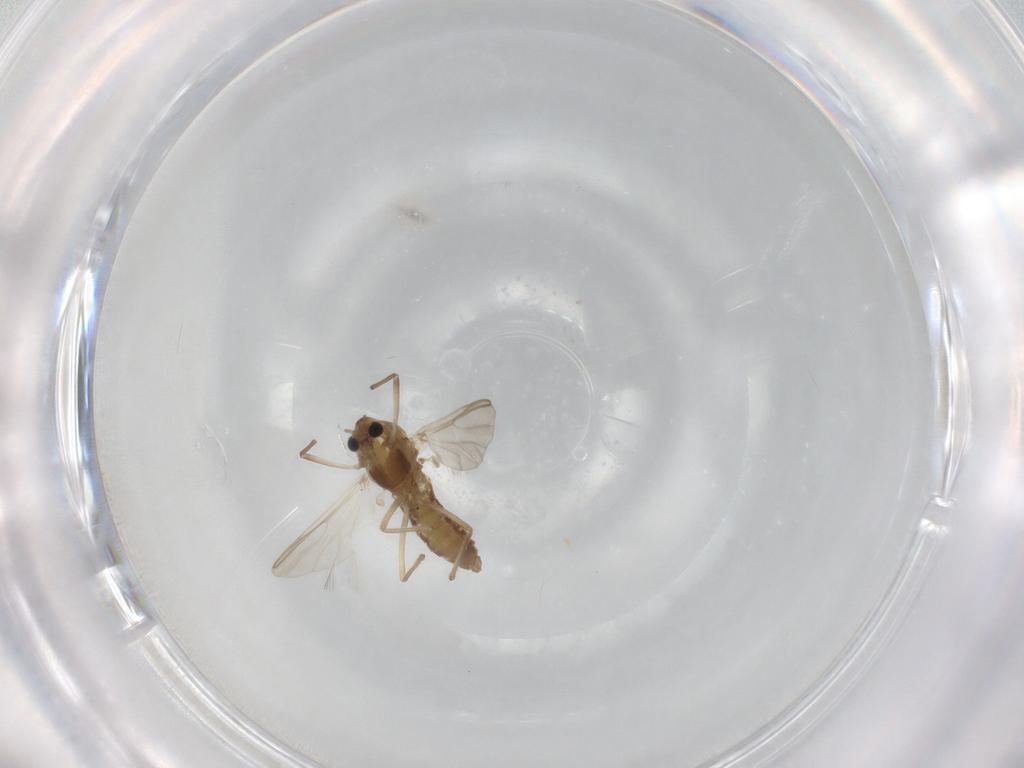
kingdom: Animalia
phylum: Arthropoda
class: Insecta
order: Diptera
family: Chironomidae
